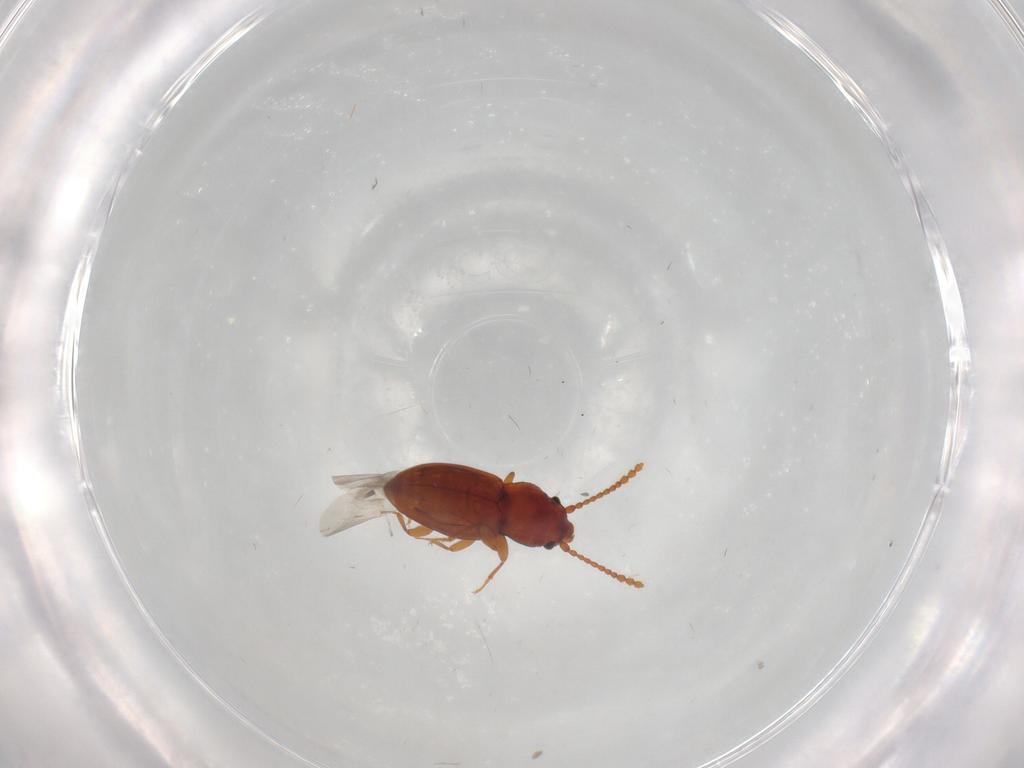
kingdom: Animalia
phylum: Arthropoda
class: Insecta
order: Coleoptera
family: Laemophloeidae
